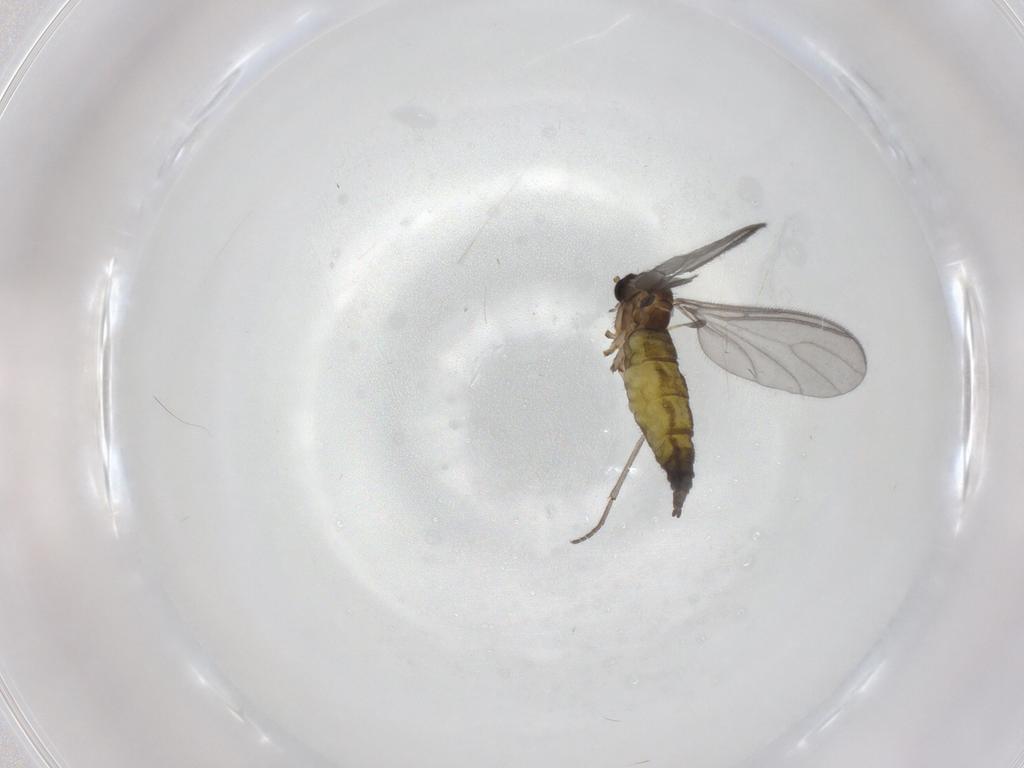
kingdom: Animalia
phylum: Arthropoda
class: Insecta
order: Diptera
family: Sciaridae
